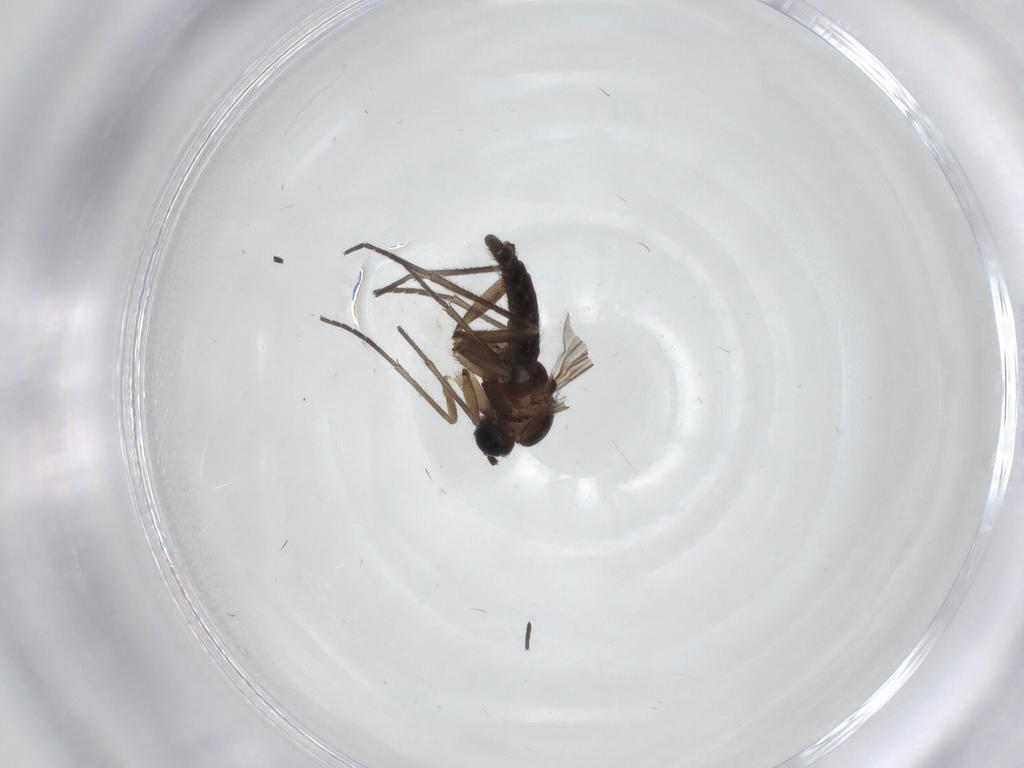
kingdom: Animalia
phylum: Arthropoda
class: Insecta
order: Diptera
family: Sciaridae
